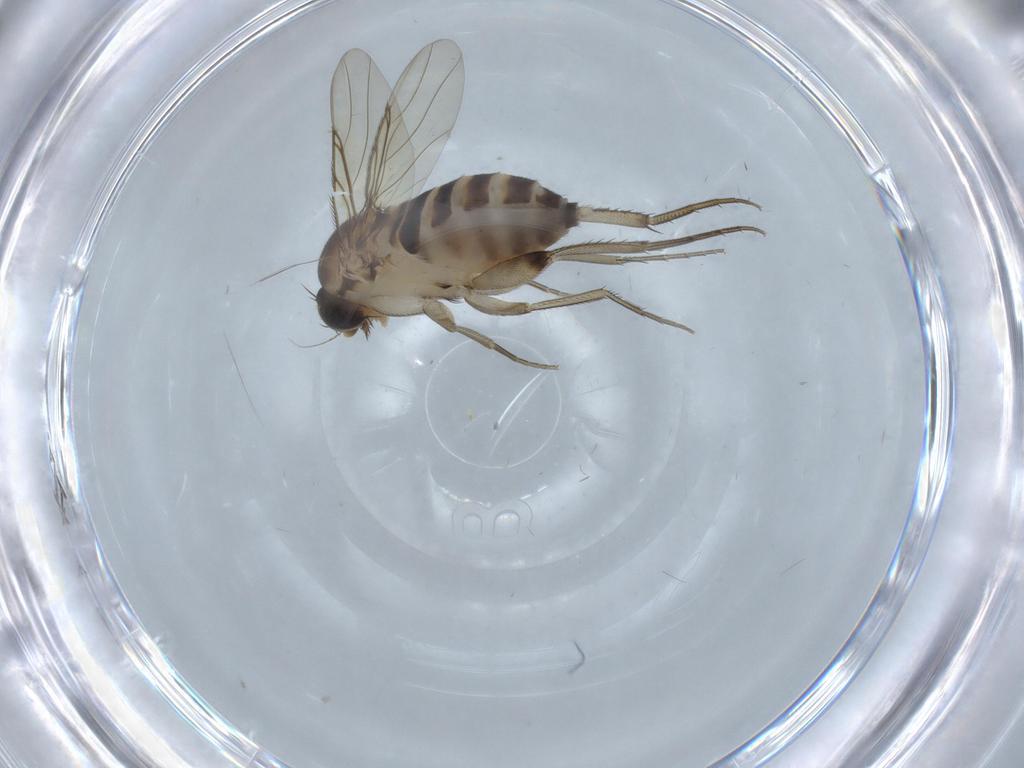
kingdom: Animalia
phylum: Arthropoda
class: Insecta
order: Diptera
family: Phoridae
